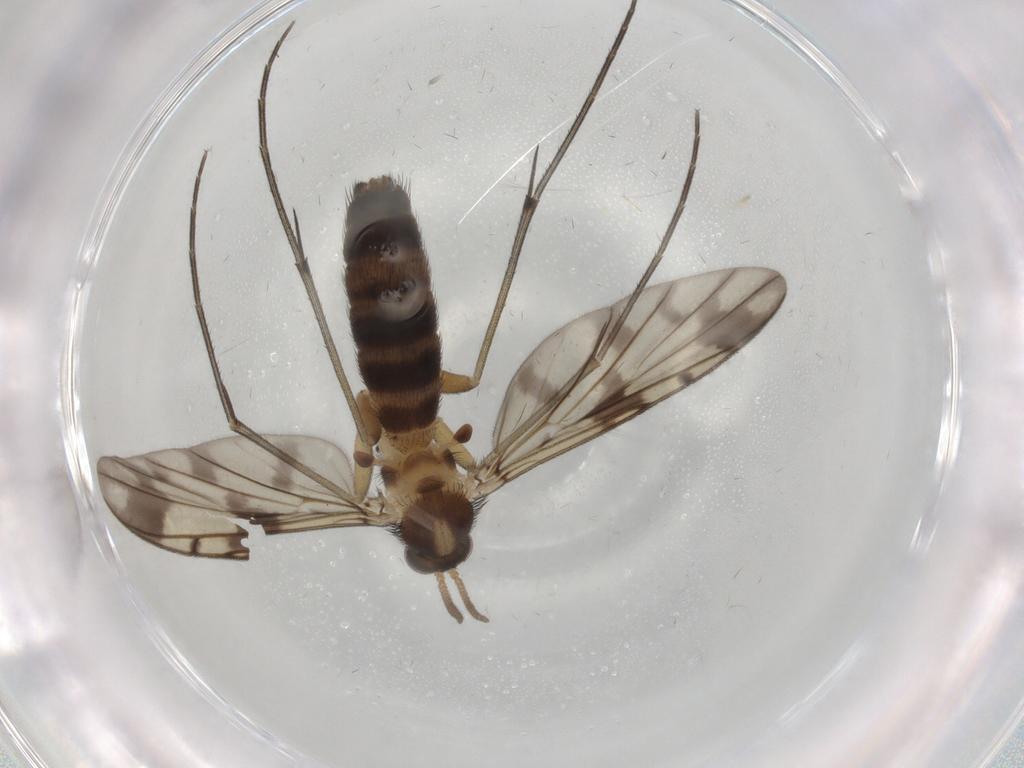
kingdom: Animalia
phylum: Arthropoda
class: Insecta
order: Diptera
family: Keroplatidae
